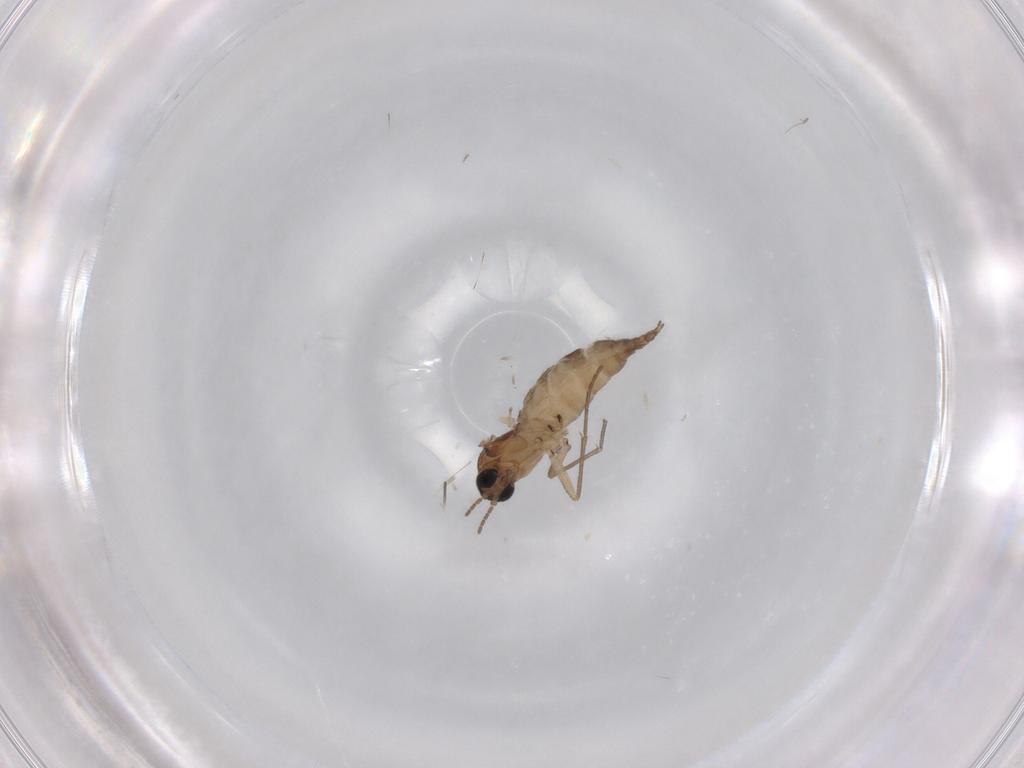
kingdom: Animalia
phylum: Arthropoda
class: Insecta
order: Diptera
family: Sciaridae
